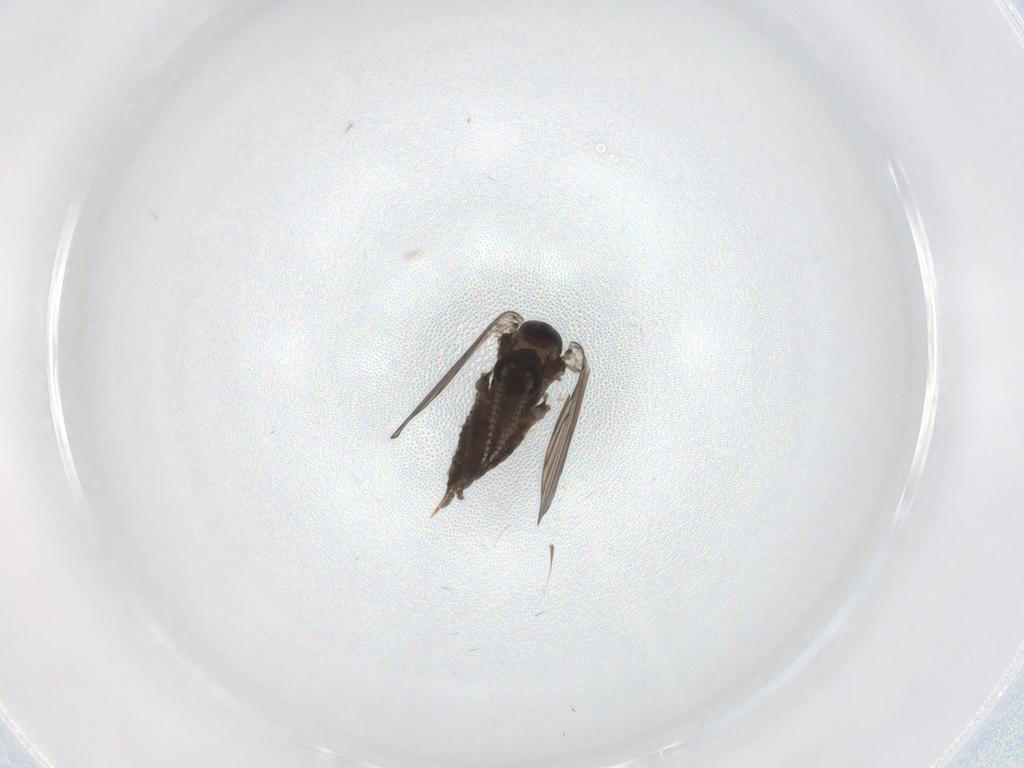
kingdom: Animalia
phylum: Arthropoda
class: Insecta
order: Diptera
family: Psychodidae
